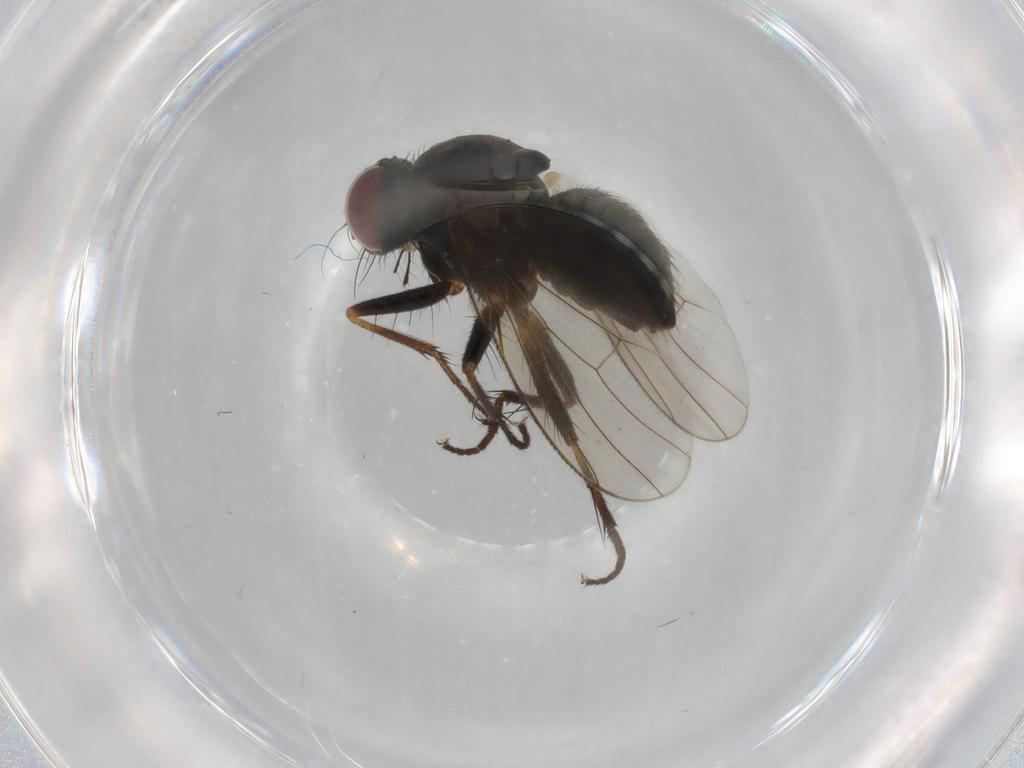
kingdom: Animalia
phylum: Arthropoda
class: Insecta
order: Diptera
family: Muscidae
